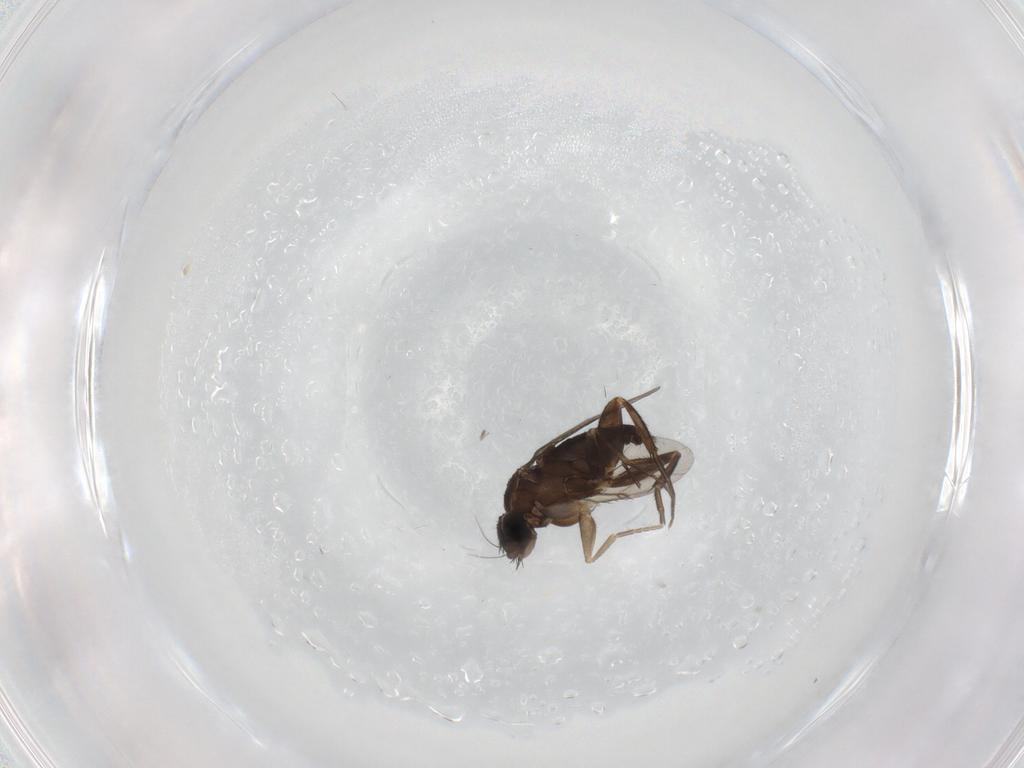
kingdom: Animalia
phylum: Arthropoda
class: Insecta
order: Diptera
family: Phoridae
